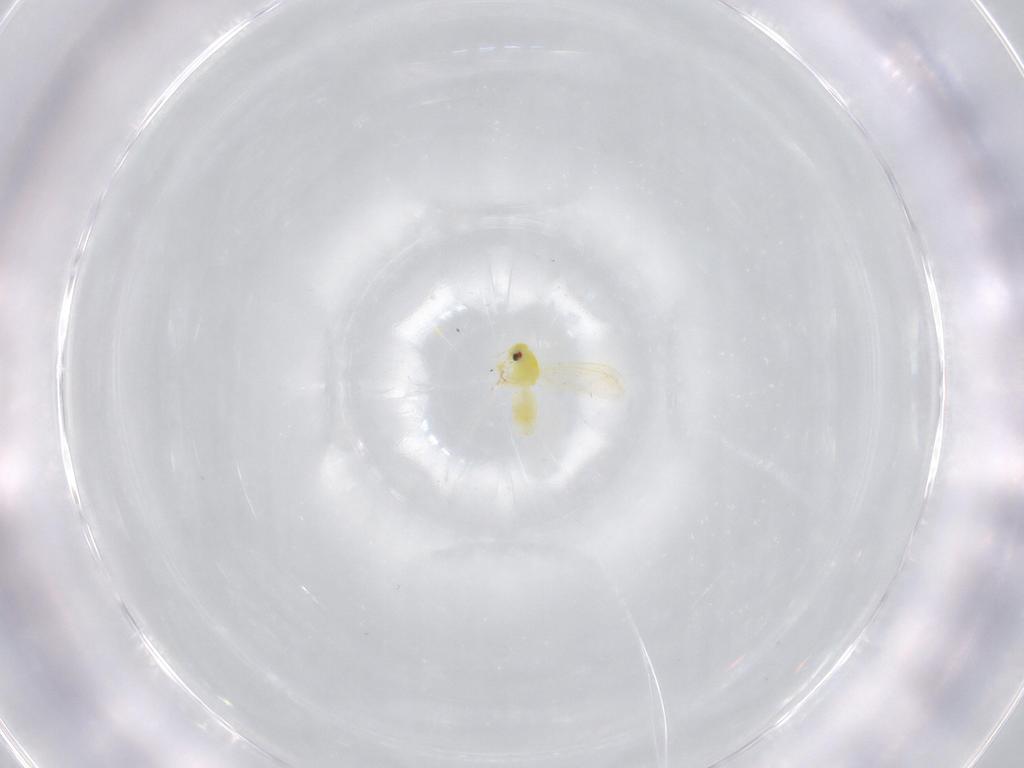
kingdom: Animalia
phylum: Arthropoda
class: Insecta
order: Hemiptera
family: Aleyrodidae
